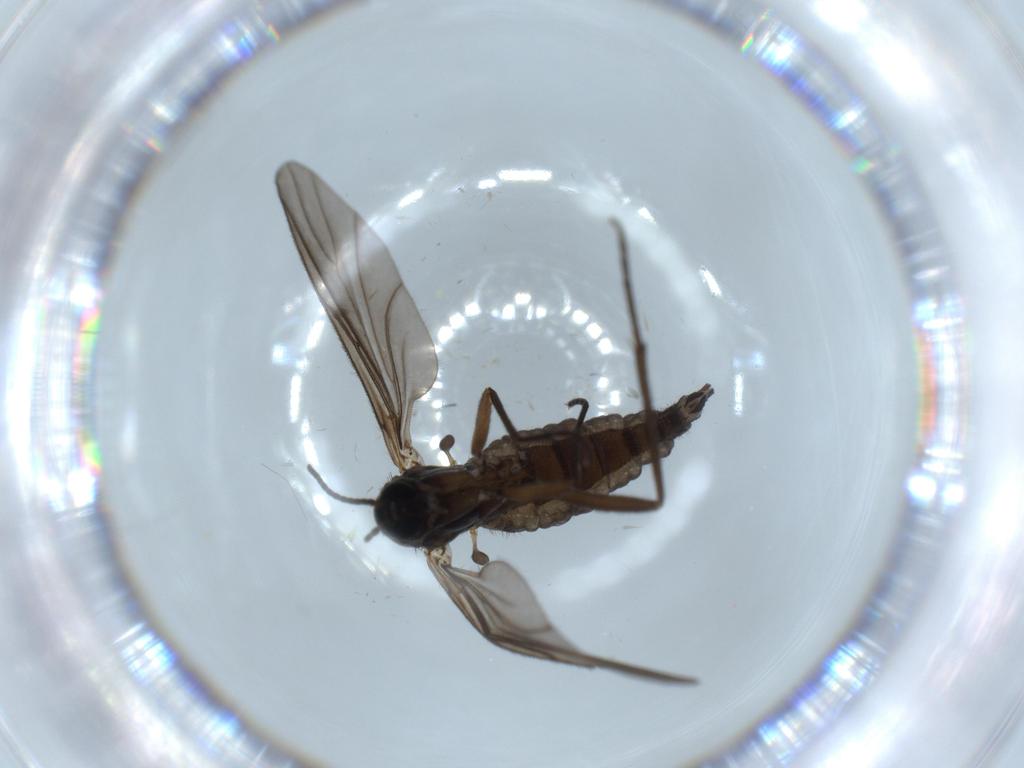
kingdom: Animalia
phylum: Arthropoda
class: Insecta
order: Diptera
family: Sciaridae
